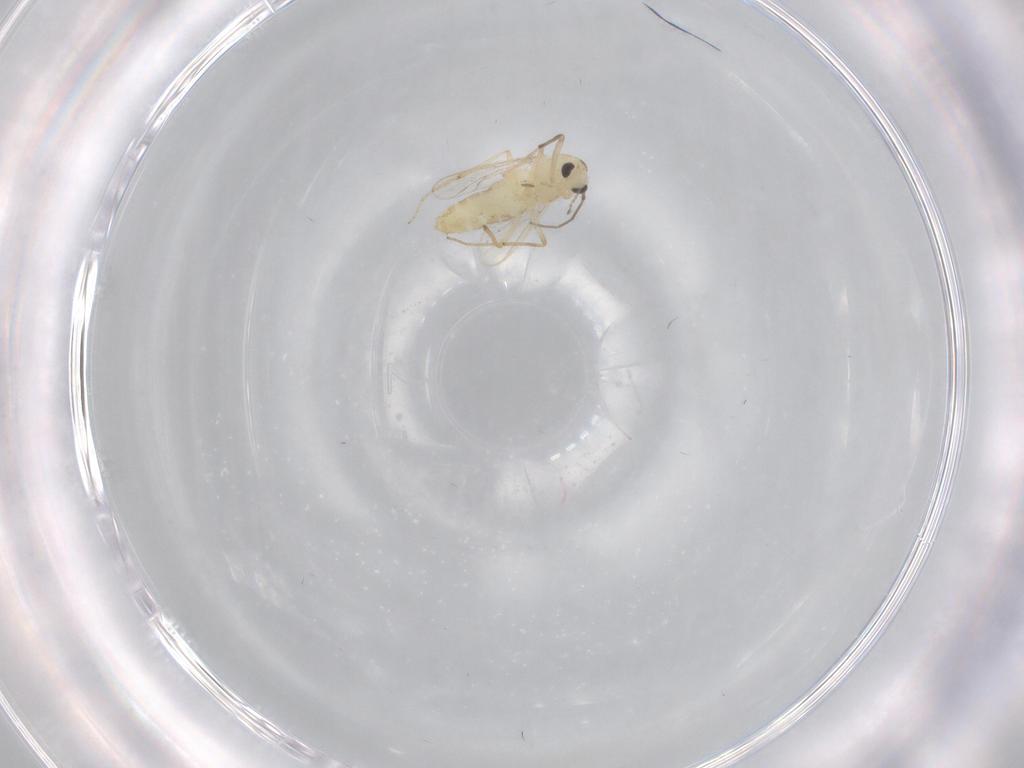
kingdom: Animalia
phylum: Arthropoda
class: Insecta
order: Diptera
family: Chironomidae
